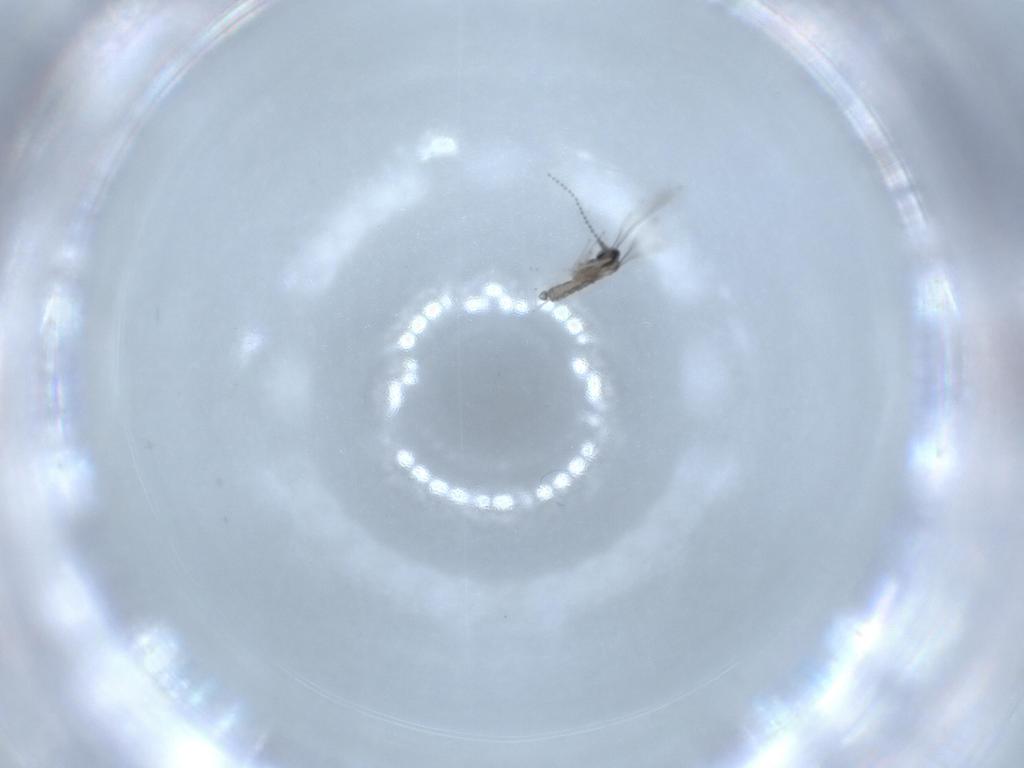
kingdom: Animalia
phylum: Arthropoda
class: Insecta
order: Diptera
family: Cecidomyiidae
